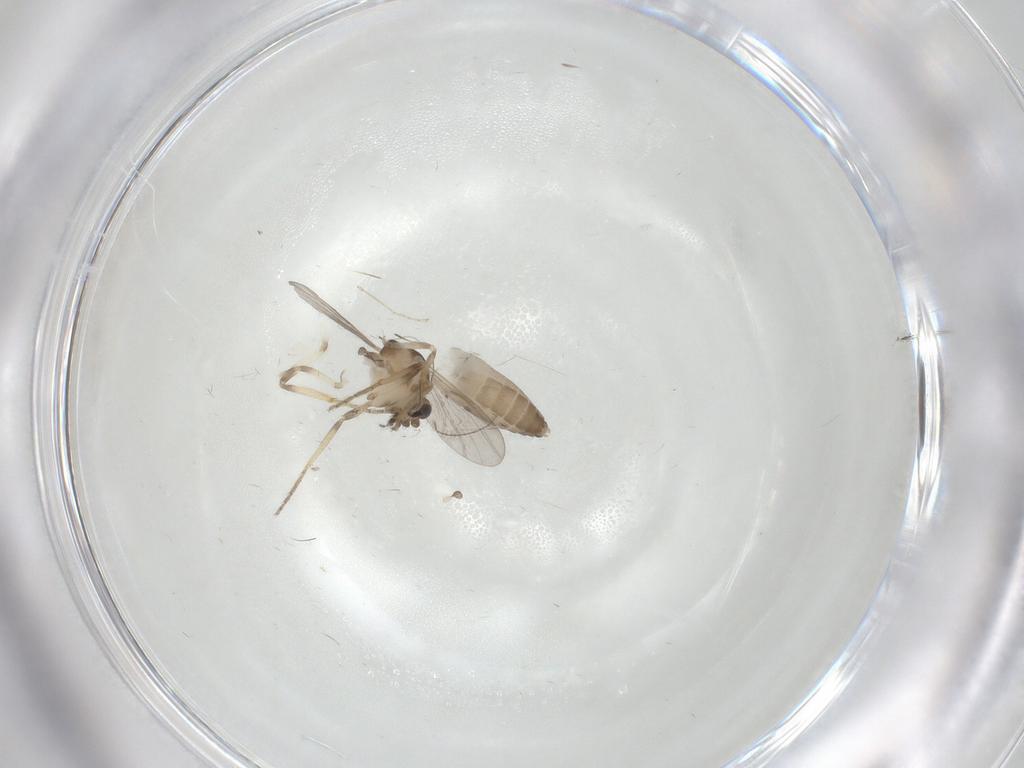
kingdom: Animalia
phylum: Arthropoda
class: Insecta
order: Diptera
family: Ceratopogonidae
